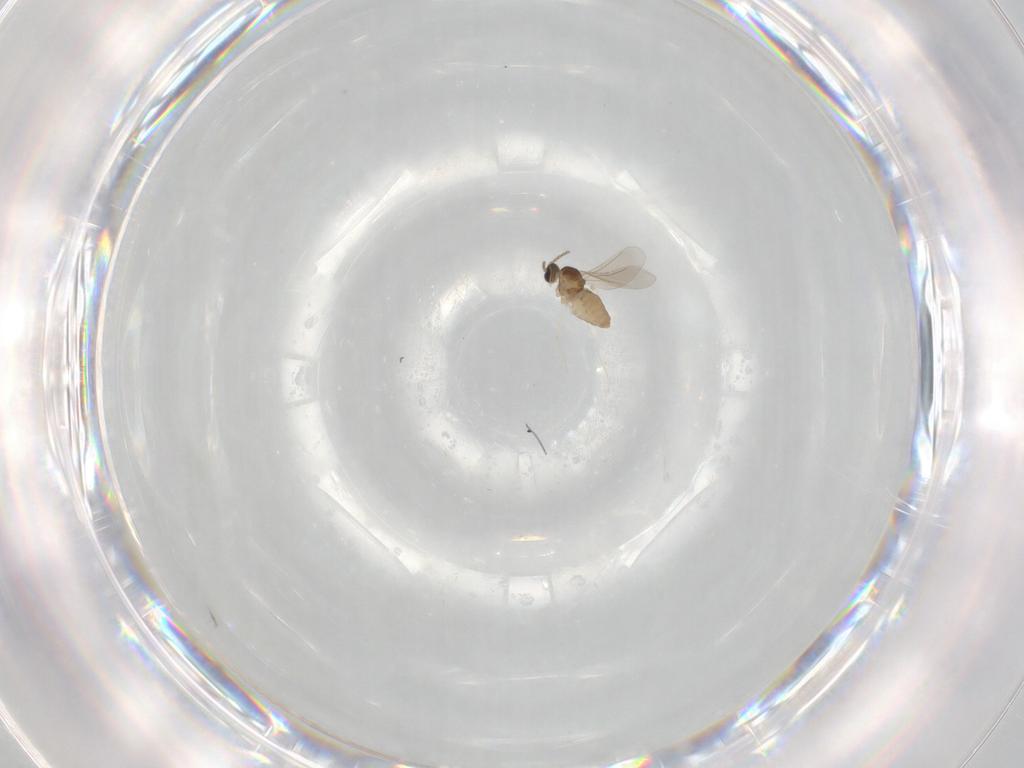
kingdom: Animalia
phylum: Arthropoda
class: Insecta
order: Diptera
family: Cecidomyiidae
